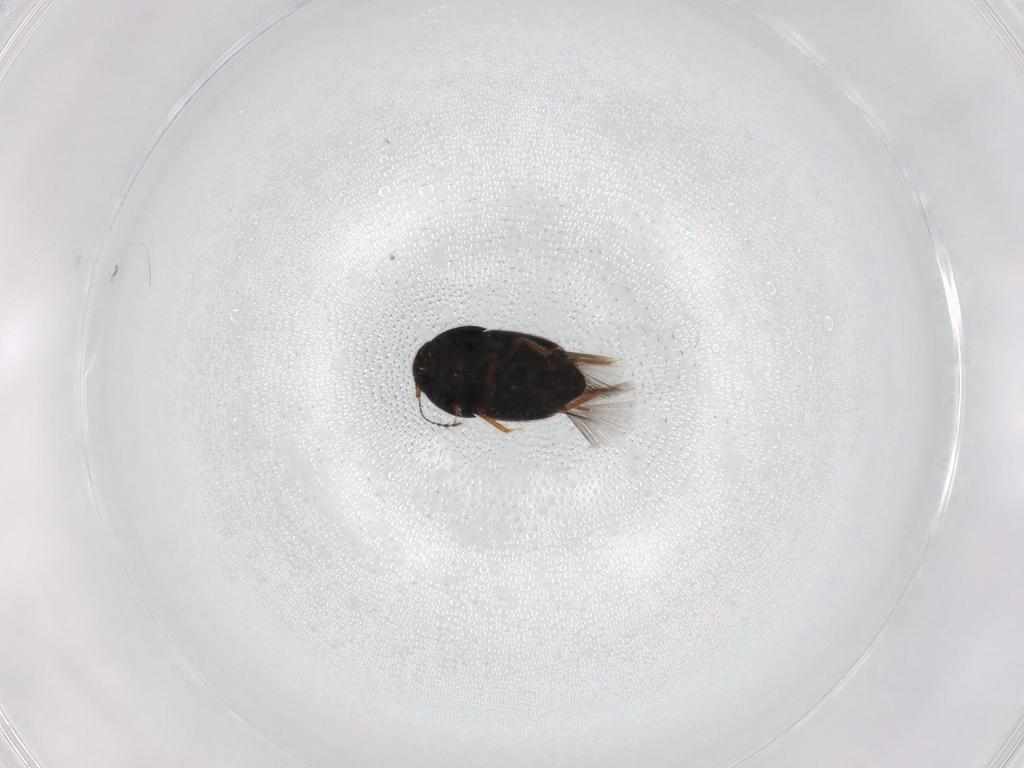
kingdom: Animalia
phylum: Arthropoda
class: Insecta
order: Coleoptera
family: Ptiliidae
